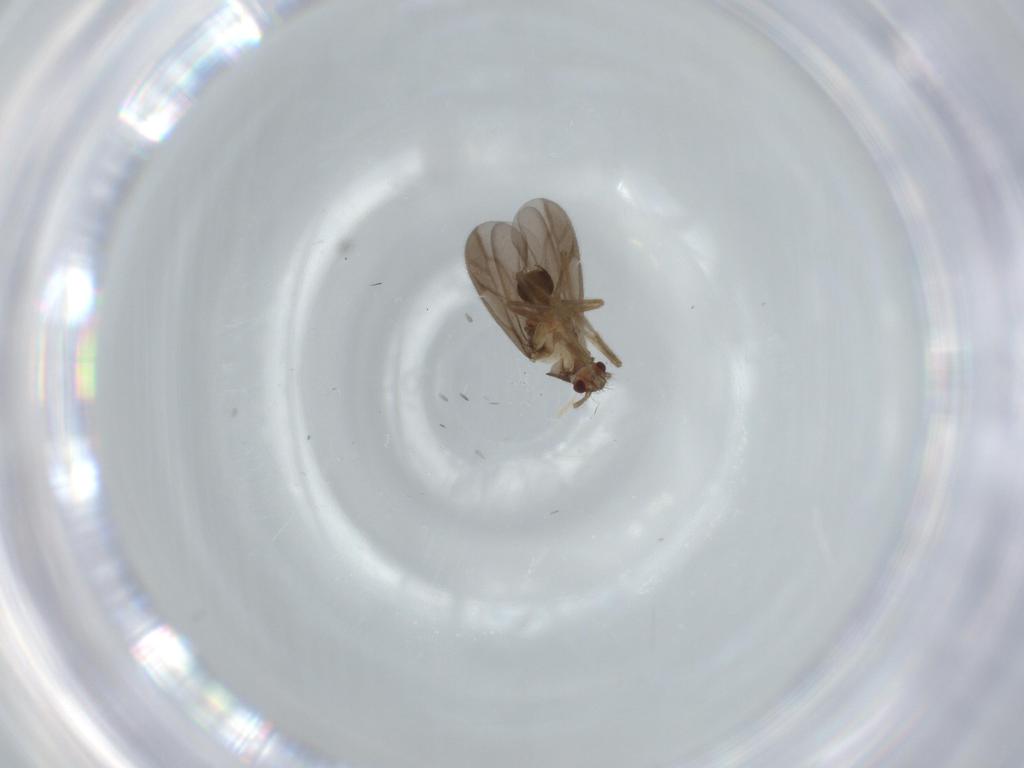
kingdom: Animalia
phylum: Arthropoda
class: Insecta
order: Hemiptera
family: Ceratocombidae
